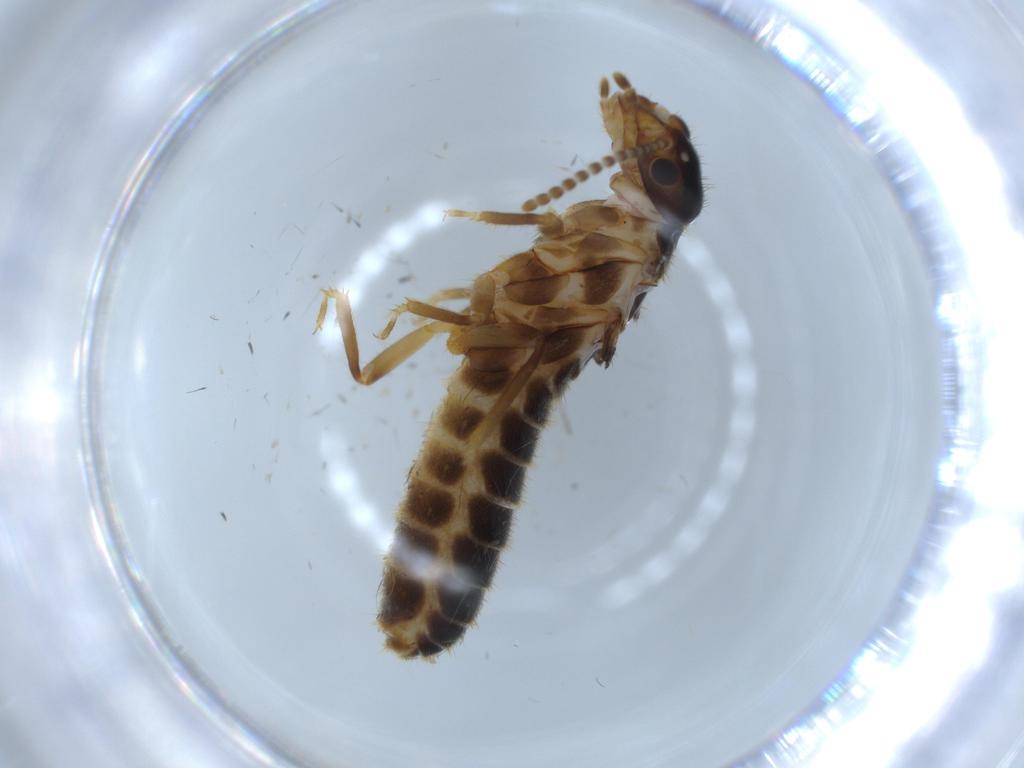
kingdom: Animalia
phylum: Arthropoda
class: Insecta
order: Blattodea
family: Termitidae
